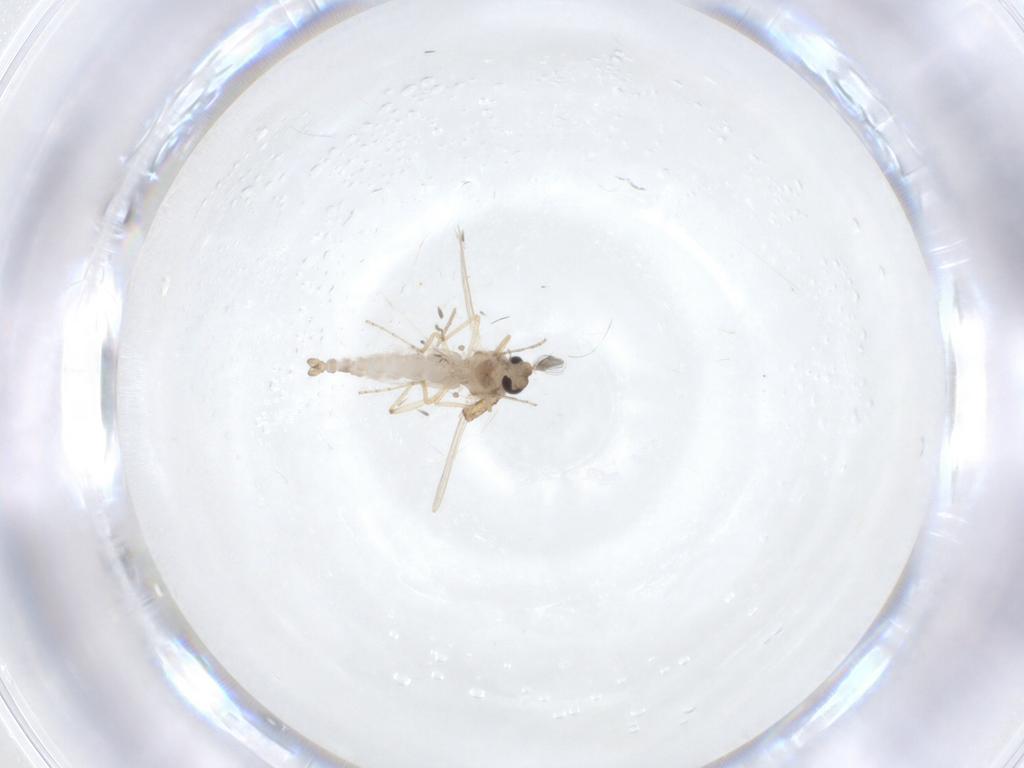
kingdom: Animalia
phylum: Arthropoda
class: Insecta
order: Diptera
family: Ceratopogonidae
